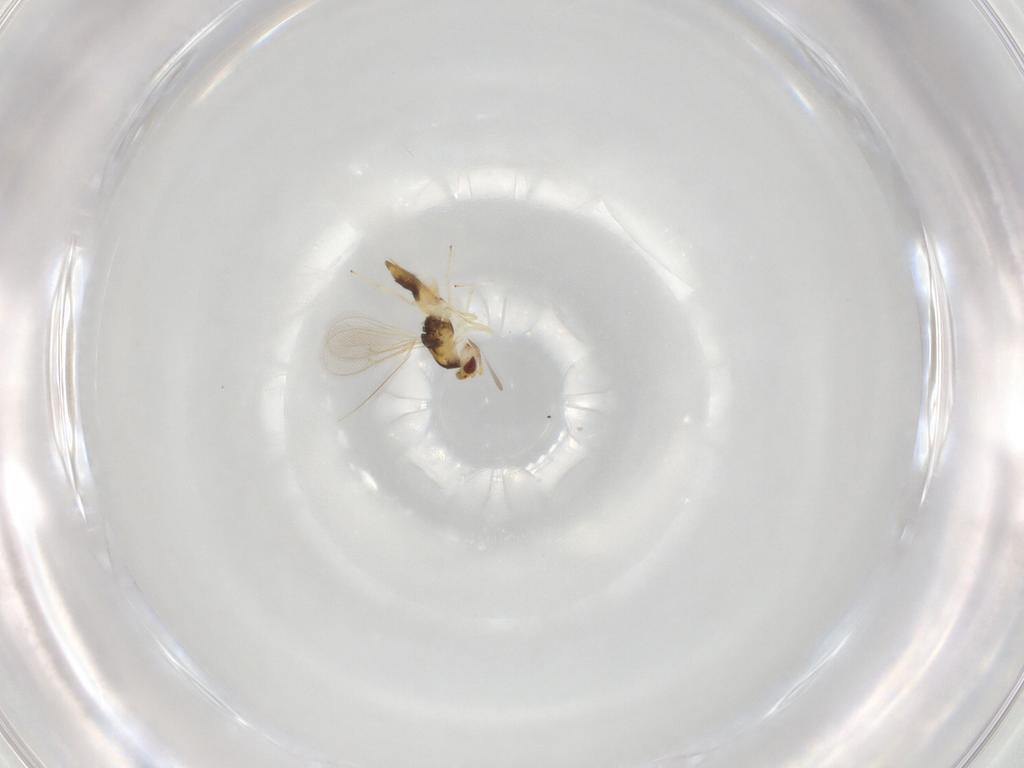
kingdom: Animalia
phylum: Arthropoda
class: Insecta
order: Hymenoptera
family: Eulophidae
